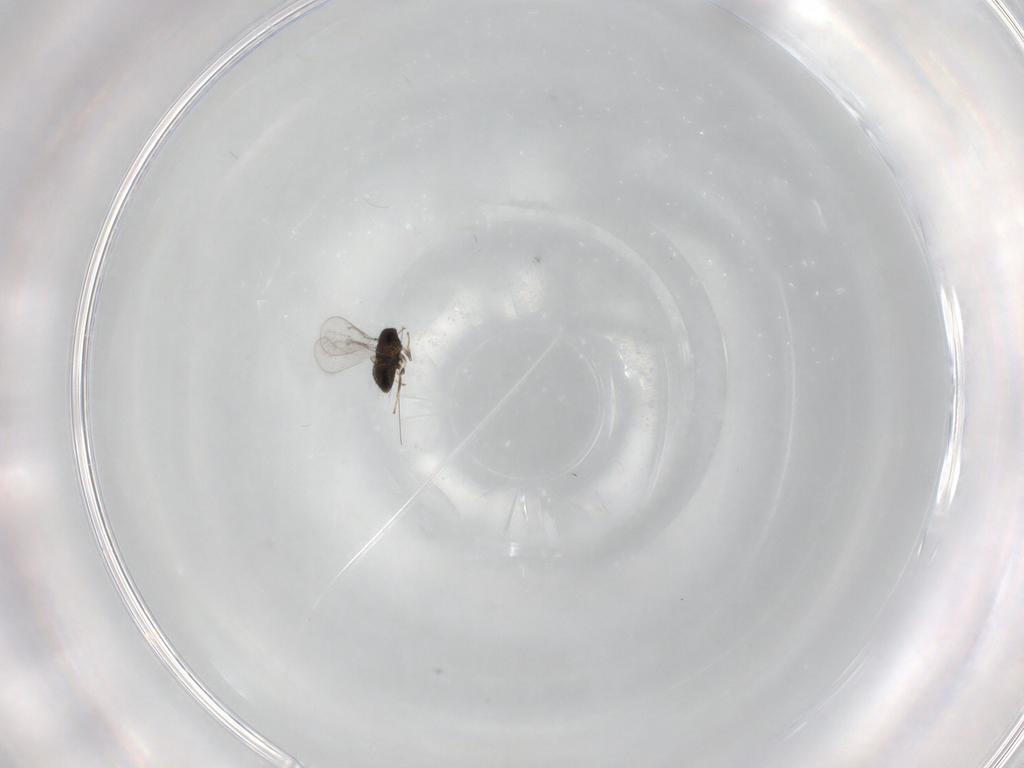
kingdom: Animalia
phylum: Arthropoda
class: Insecta
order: Hymenoptera
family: Aphelinidae
